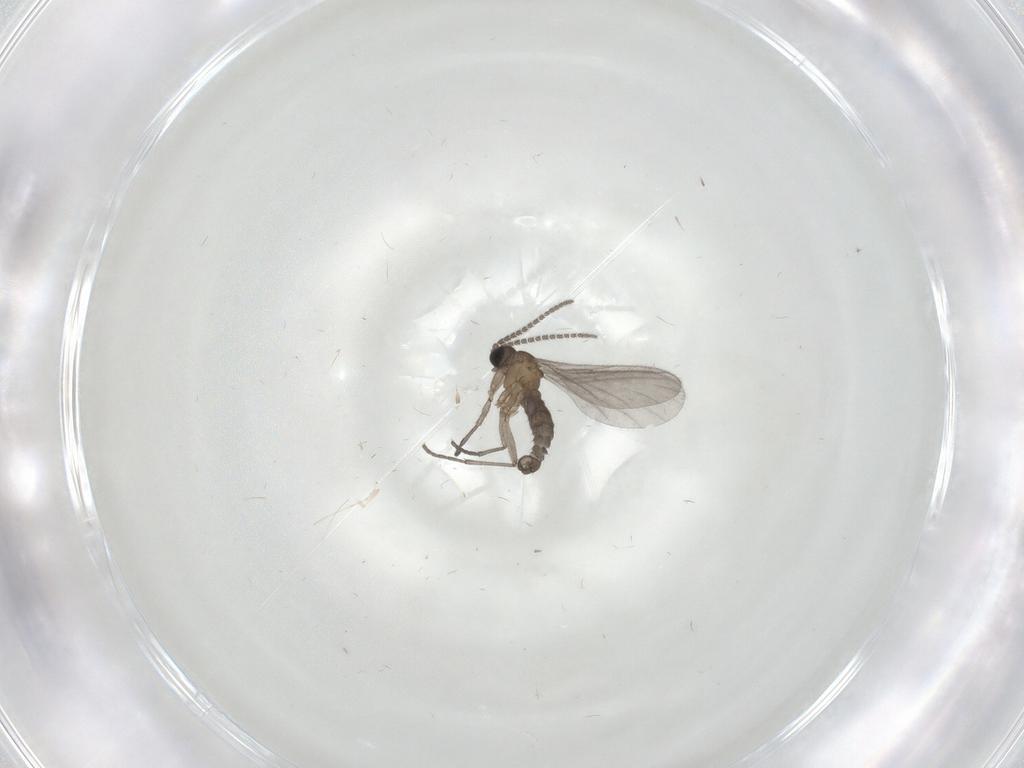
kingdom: Animalia
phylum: Arthropoda
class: Insecta
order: Diptera
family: Sciaridae
